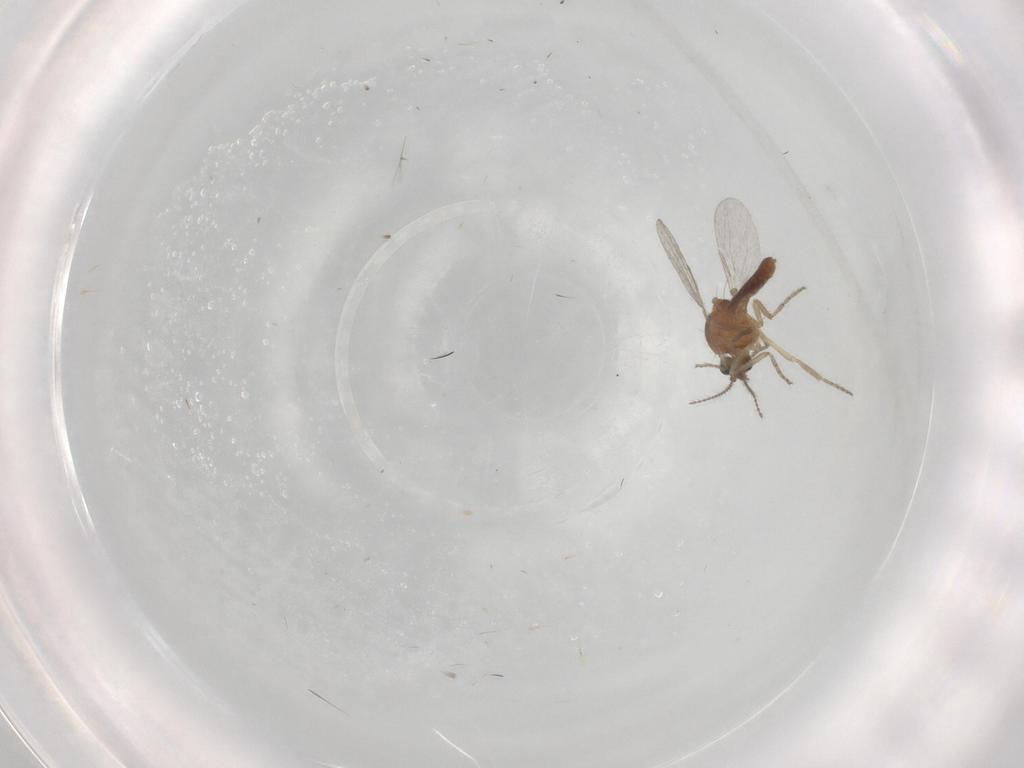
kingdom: Animalia
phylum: Arthropoda
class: Insecta
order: Diptera
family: Ceratopogonidae
